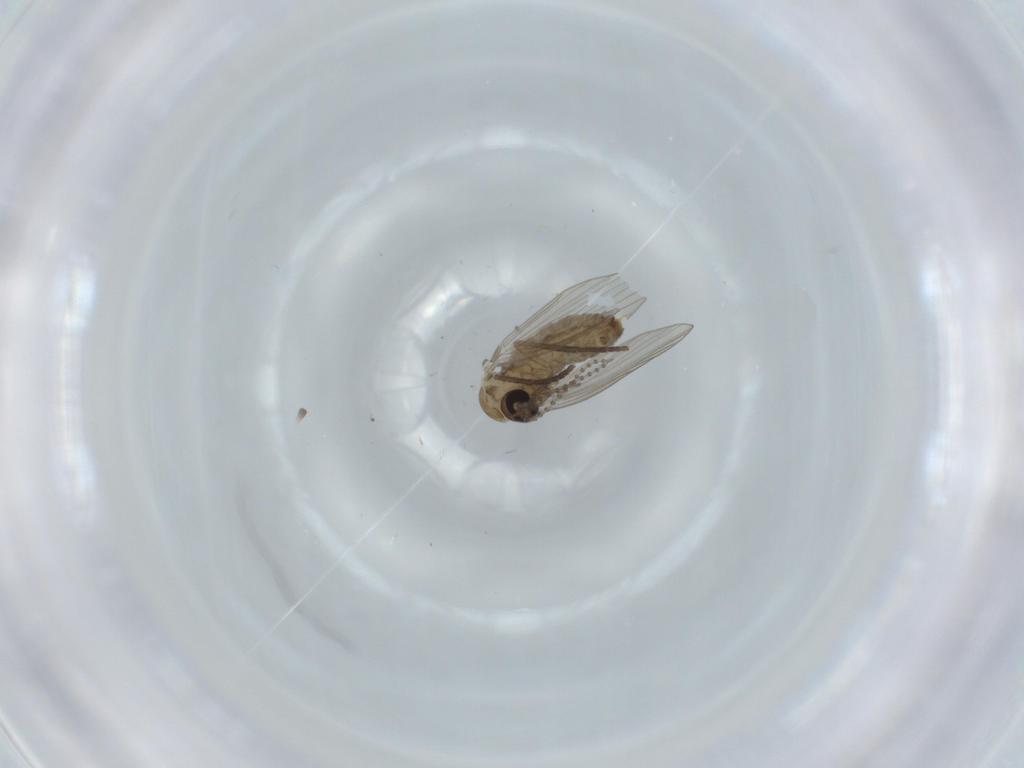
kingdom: Animalia
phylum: Arthropoda
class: Insecta
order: Diptera
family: Psychodidae
